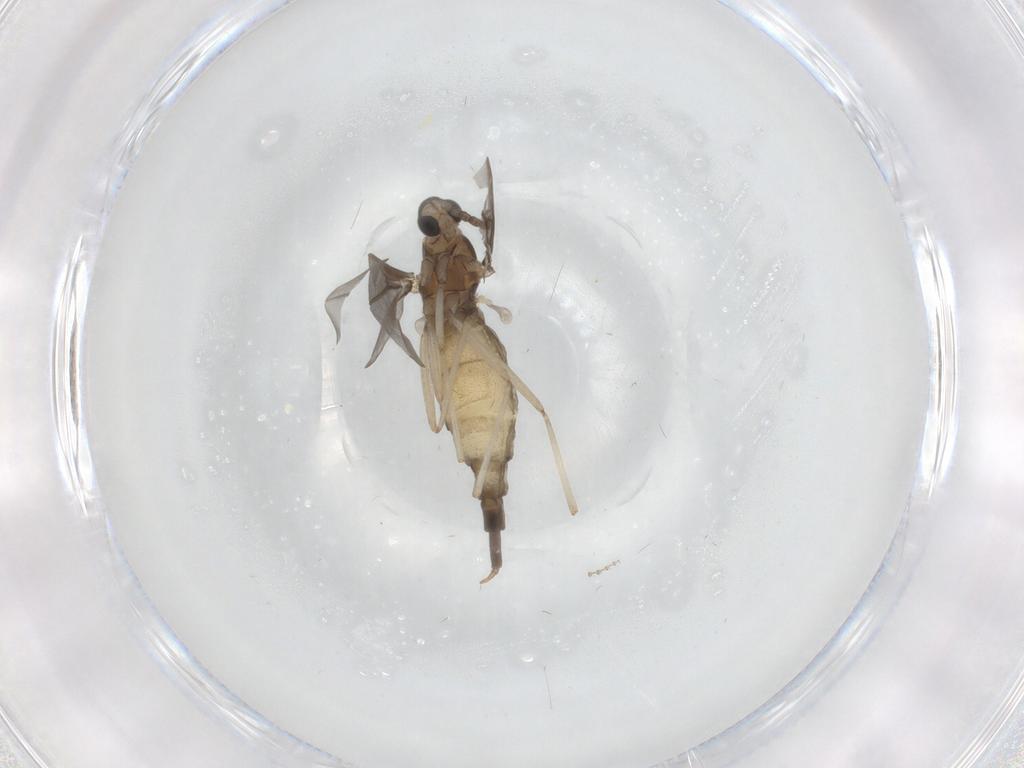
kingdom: Animalia
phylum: Arthropoda
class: Insecta
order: Diptera
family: Cecidomyiidae
